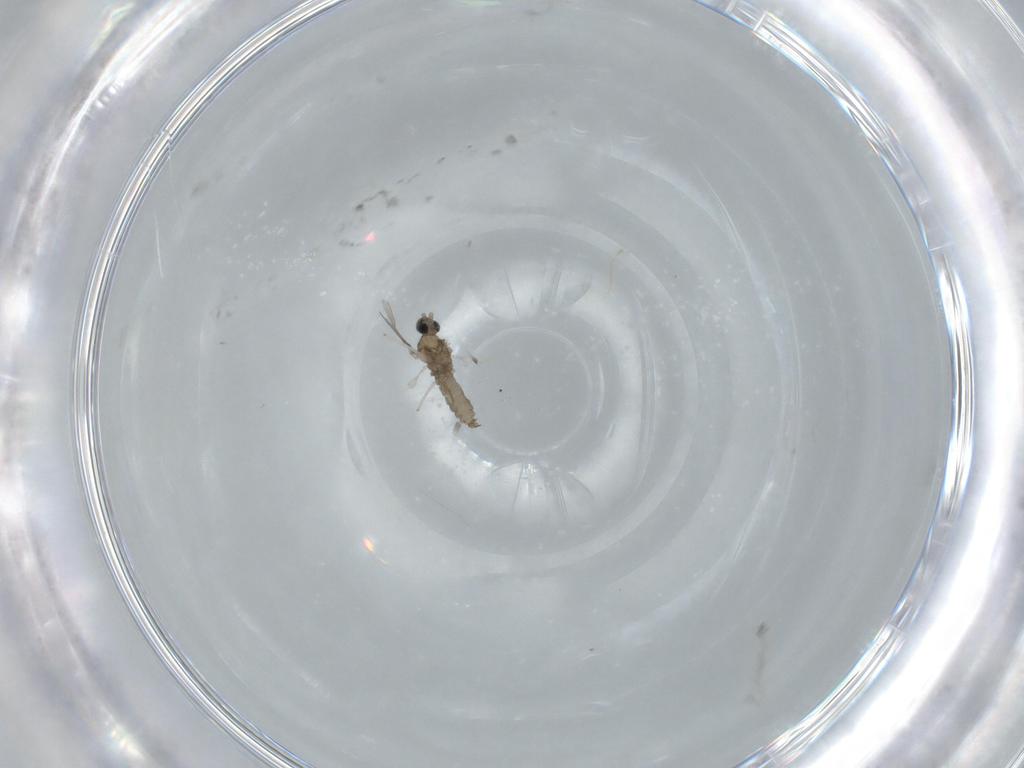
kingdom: Animalia
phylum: Arthropoda
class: Insecta
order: Diptera
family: Cecidomyiidae
